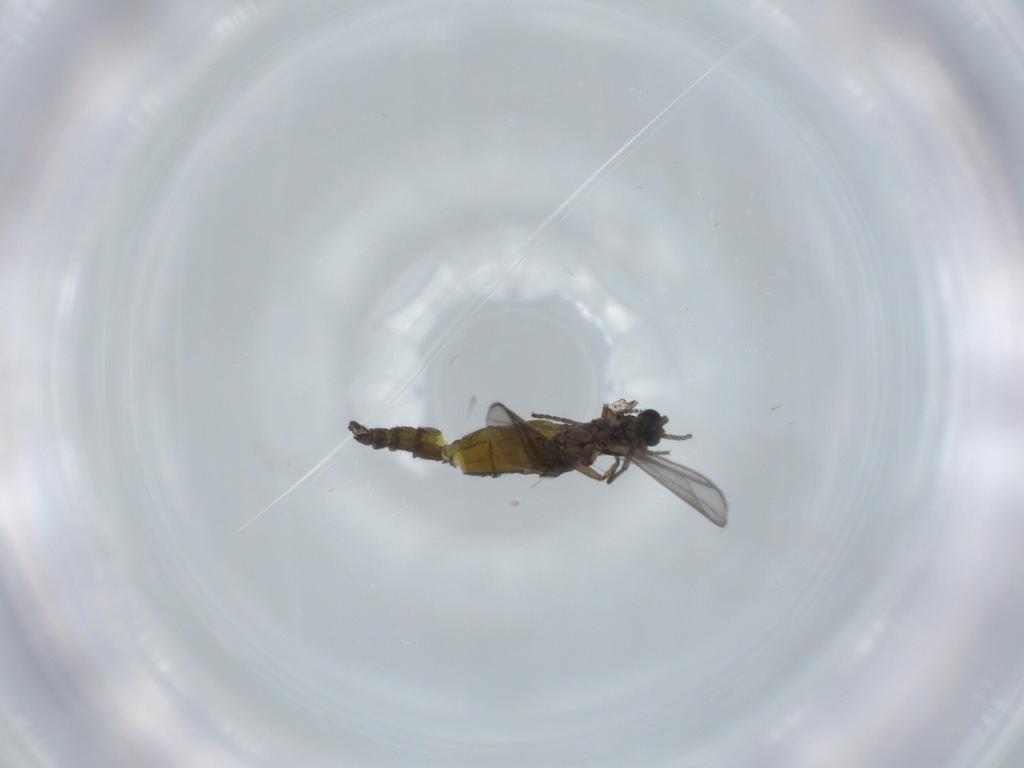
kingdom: Animalia
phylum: Arthropoda
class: Insecta
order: Diptera
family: Sciaridae
